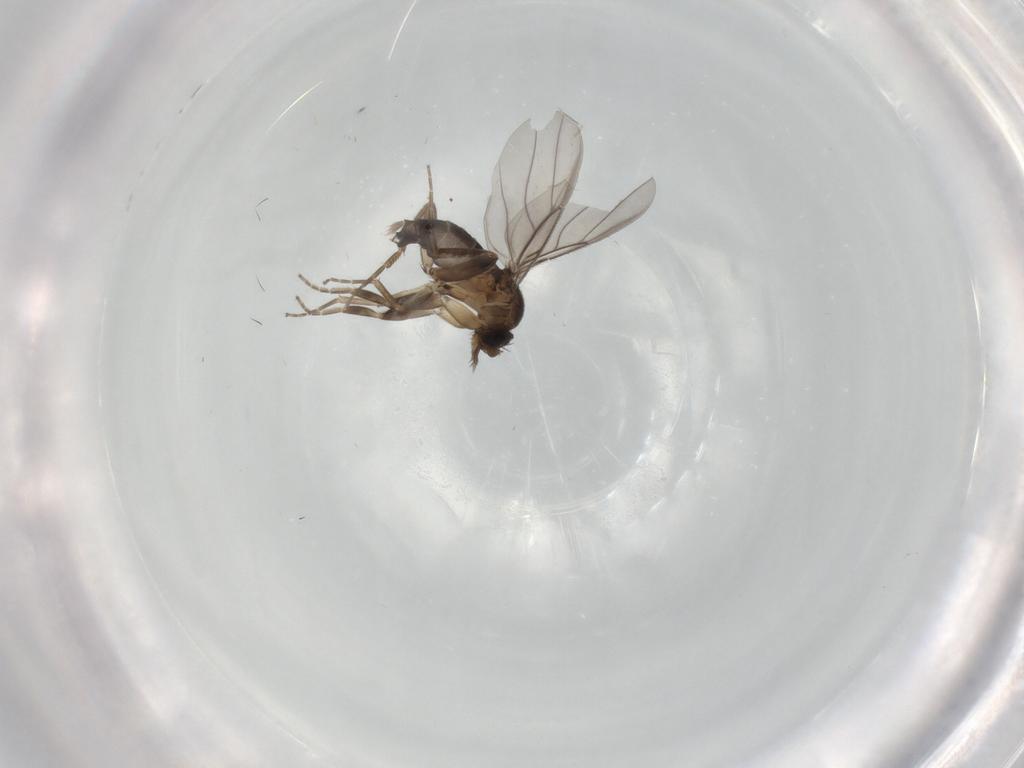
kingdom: Animalia
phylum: Arthropoda
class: Insecta
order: Diptera
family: Cecidomyiidae
